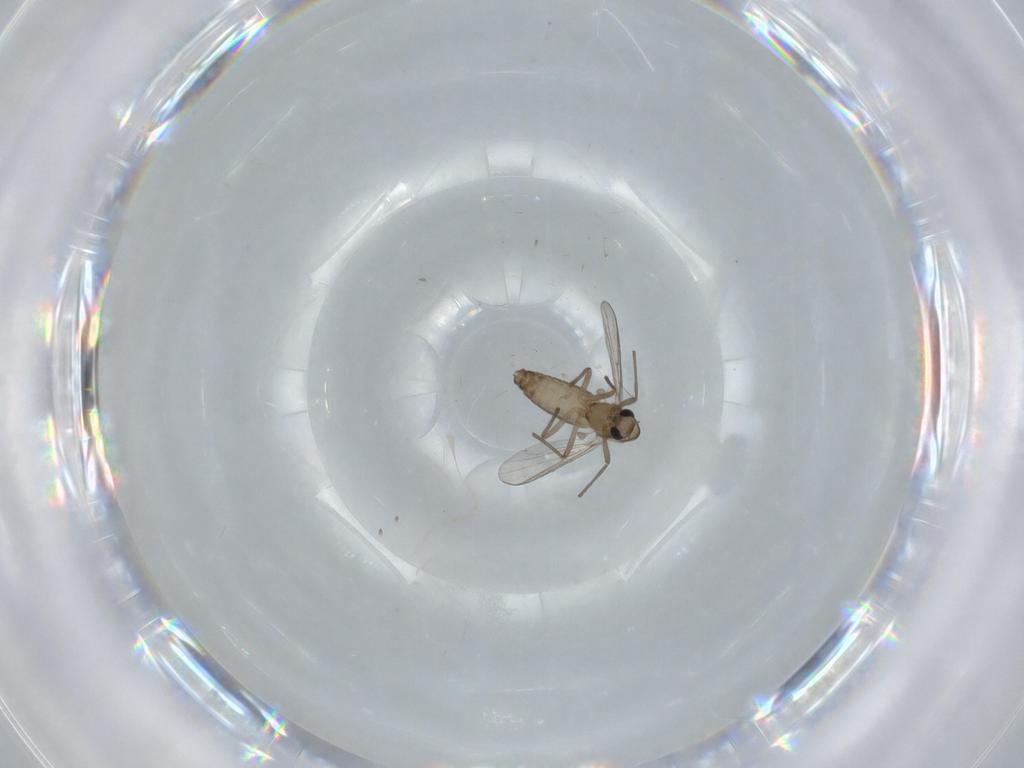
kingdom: Animalia
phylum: Arthropoda
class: Insecta
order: Diptera
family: Chironomidae
